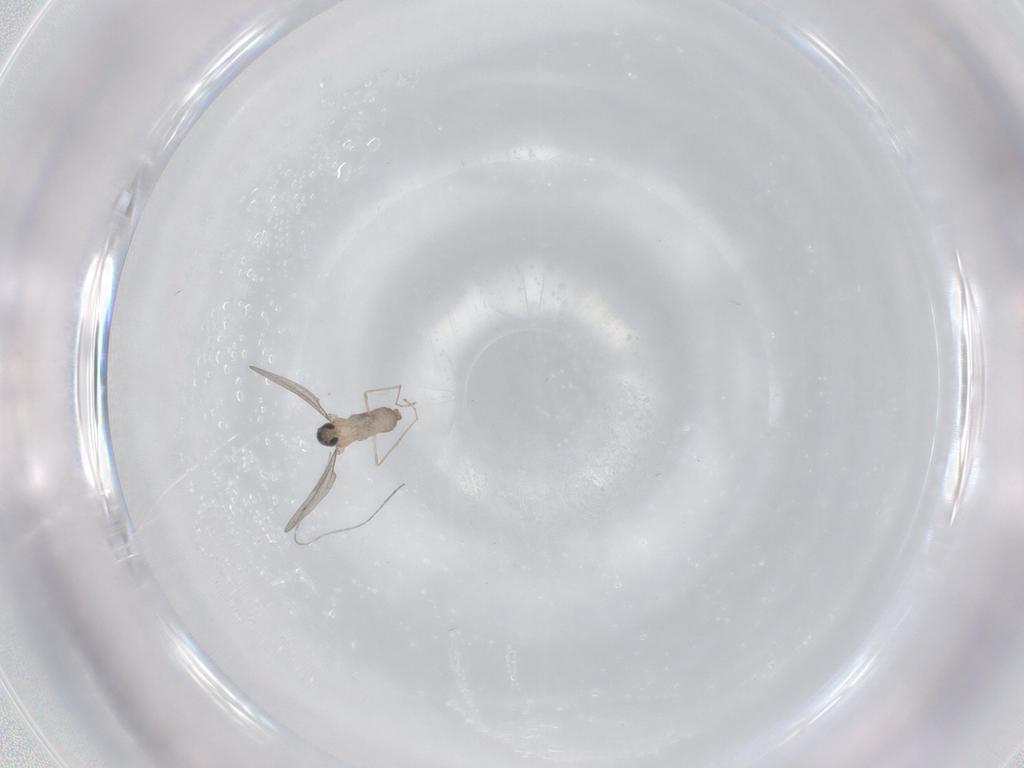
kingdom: Animalia
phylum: Arthropoda
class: Insecta
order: Diptera
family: Cecidomyiidae
